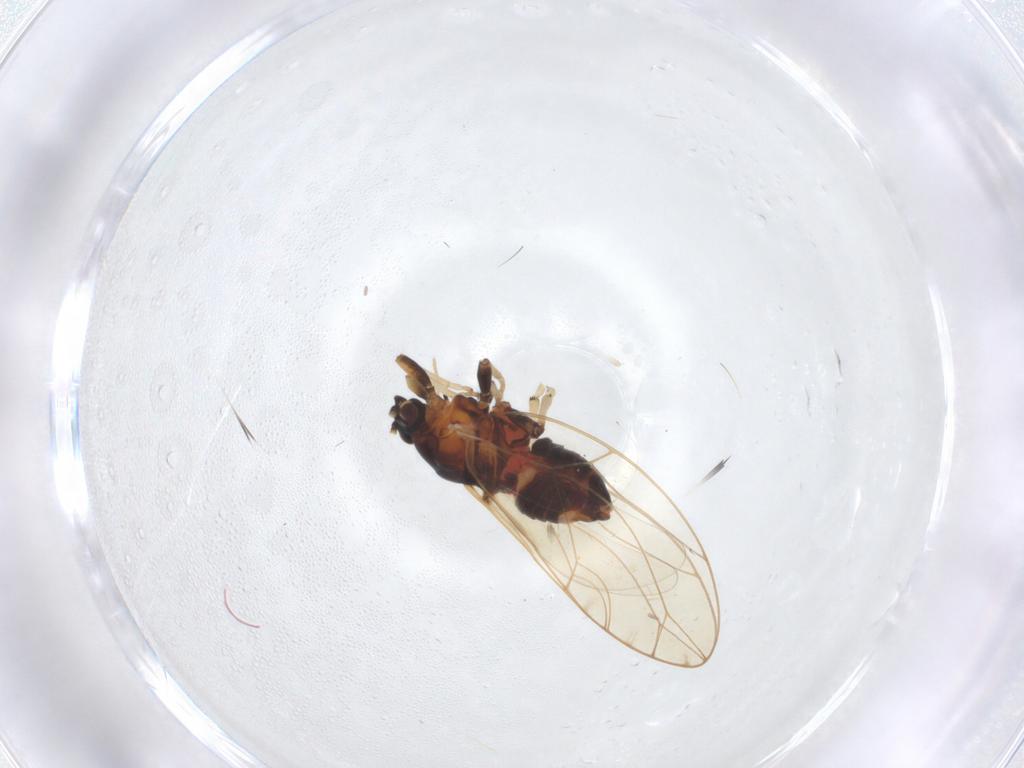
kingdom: Animalia
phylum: Arthropoda
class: Insecta
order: Hemiptera
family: Triozidae
